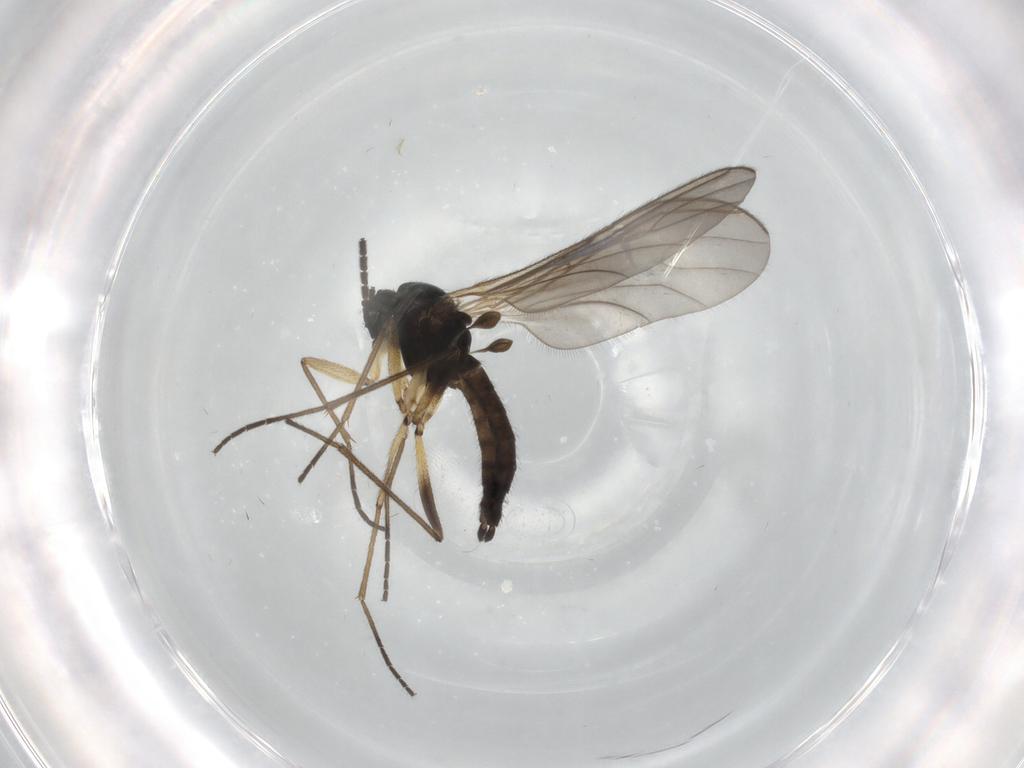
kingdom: Animalia
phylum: Arthropoda
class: Insecta
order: Diptera
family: Sciaridae
